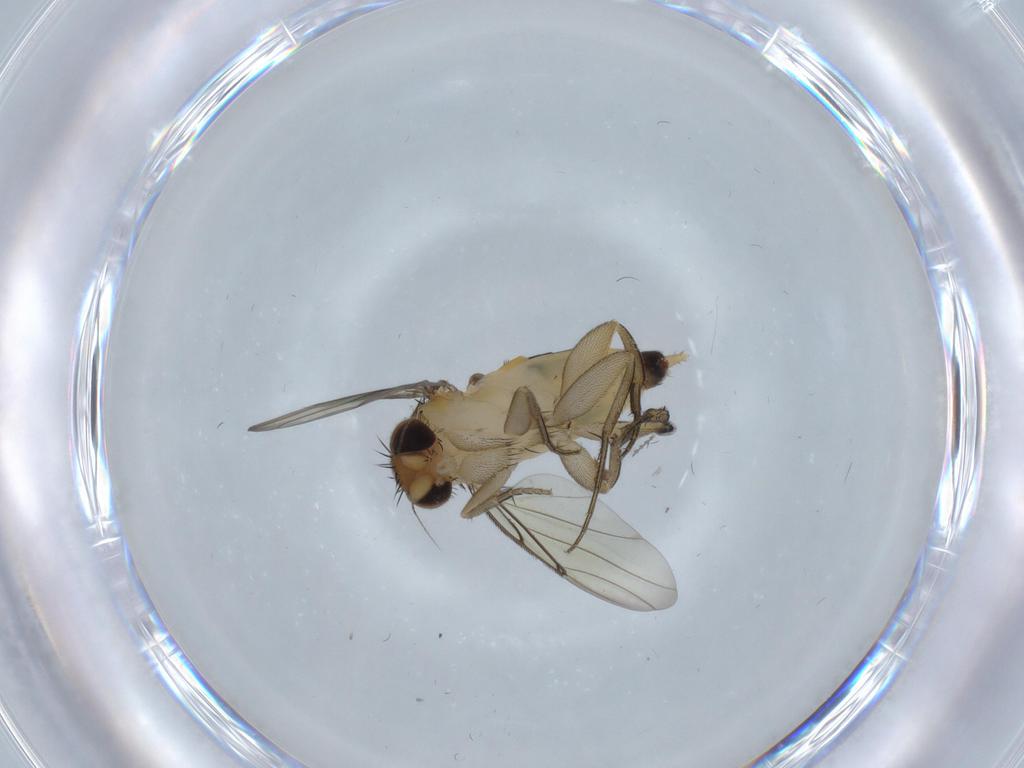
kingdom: Animalia
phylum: Arthropoda
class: Insecta
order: Diptera
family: Phoridae
